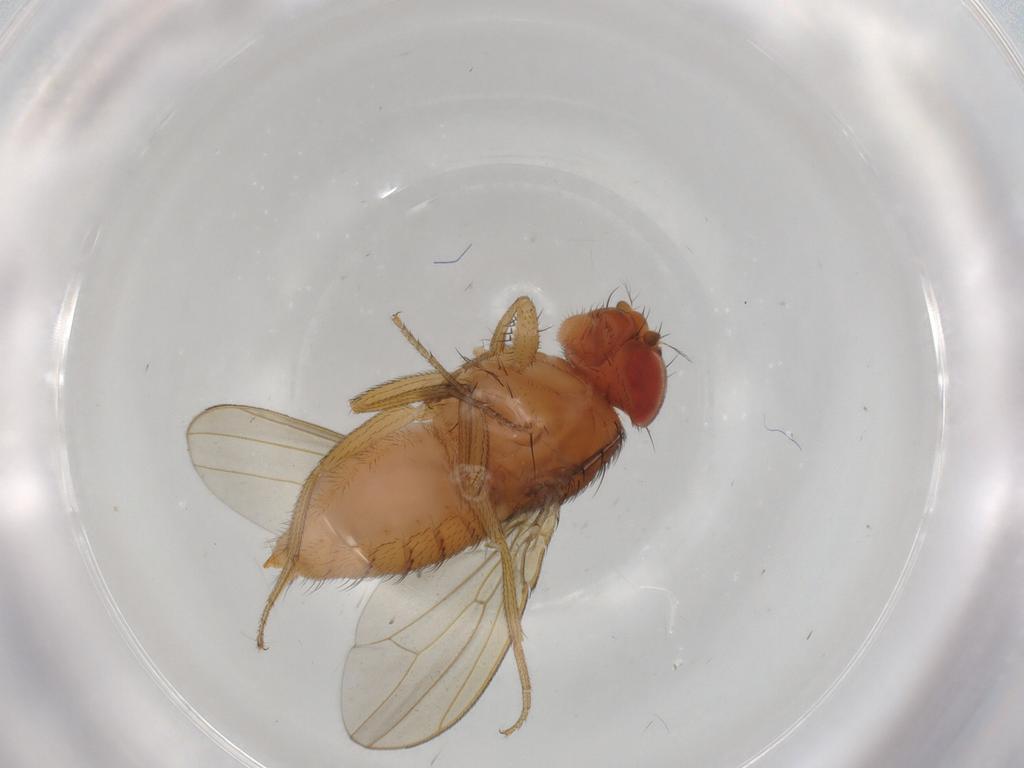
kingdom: Animalia
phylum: Arthropoda
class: Insecta
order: Diptera
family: Drosophilidae
